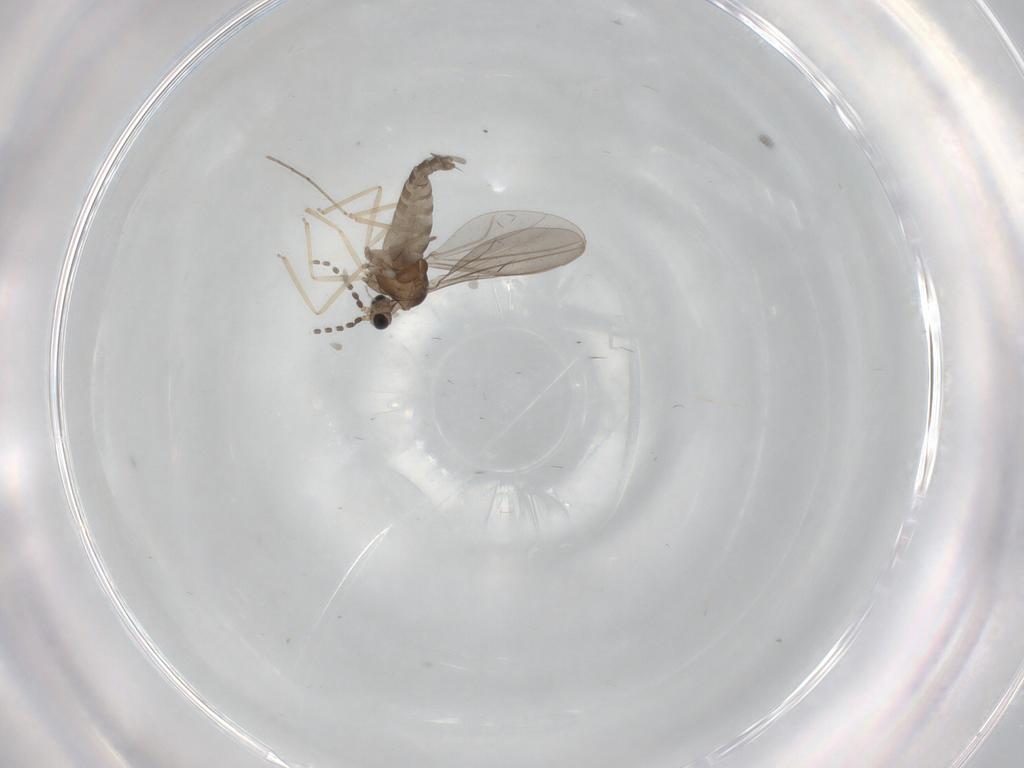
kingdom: Animalia
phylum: Arthropoda
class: Insecta
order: Diptera
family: Cecidomyiidae
